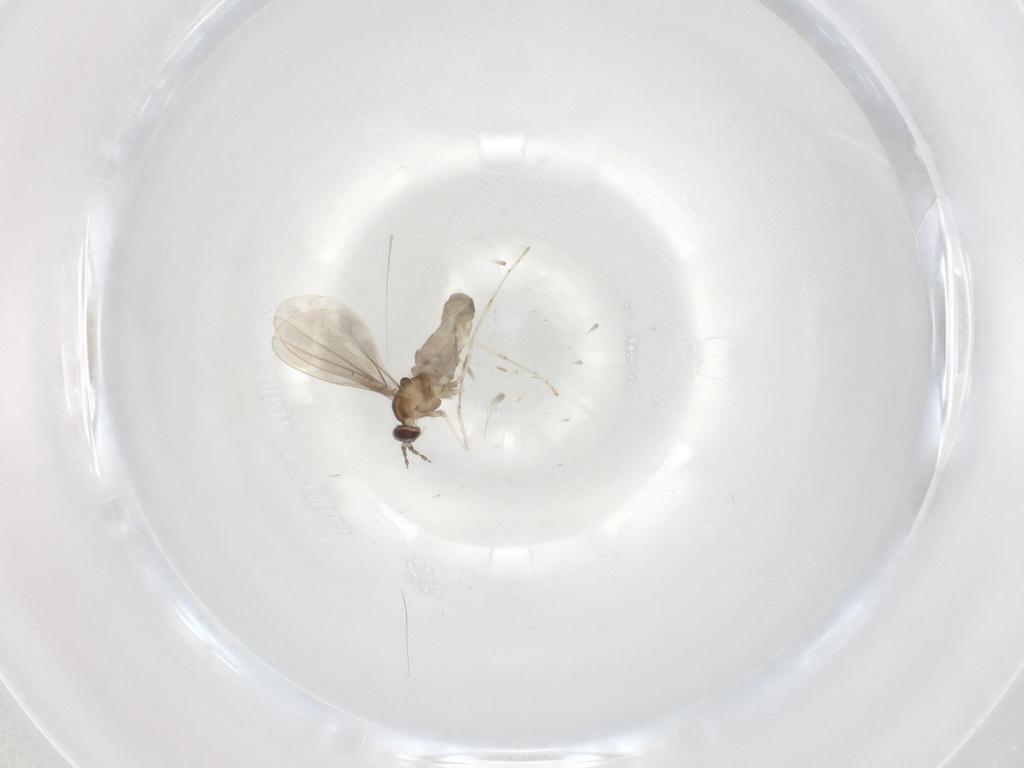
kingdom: Animalia
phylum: Arthropoda
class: Insecta
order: Diptera
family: Cecidomyiidae
